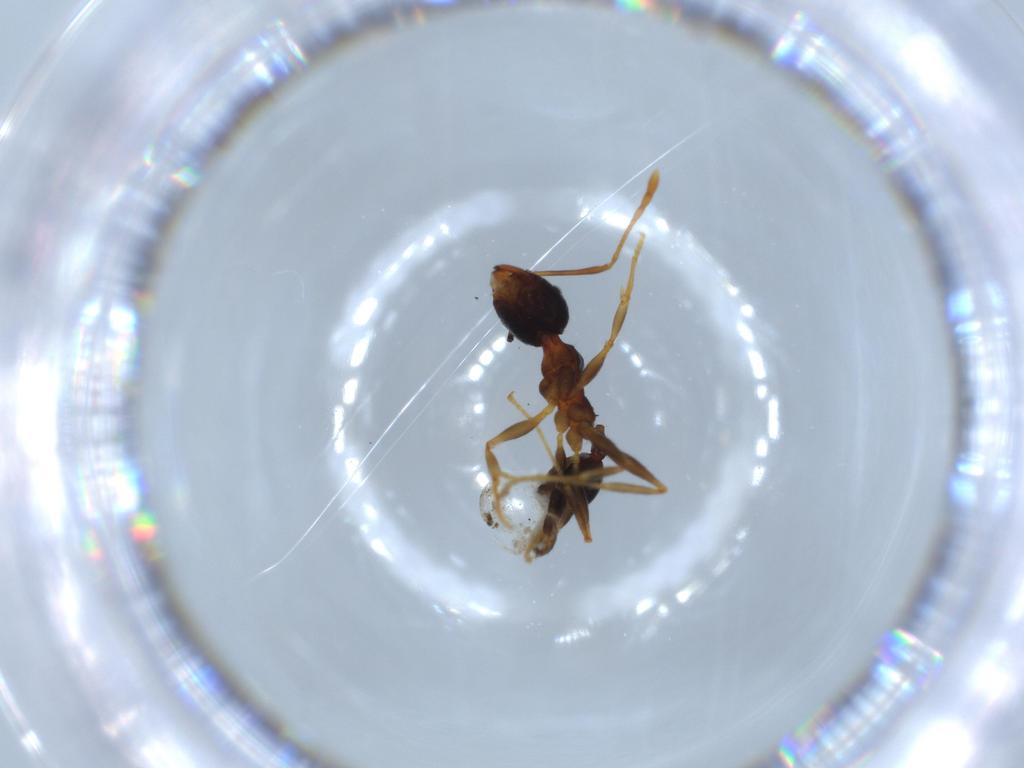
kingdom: Animalia
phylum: Arthropoda
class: Insecta
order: Hymenoptera
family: Formicidae
